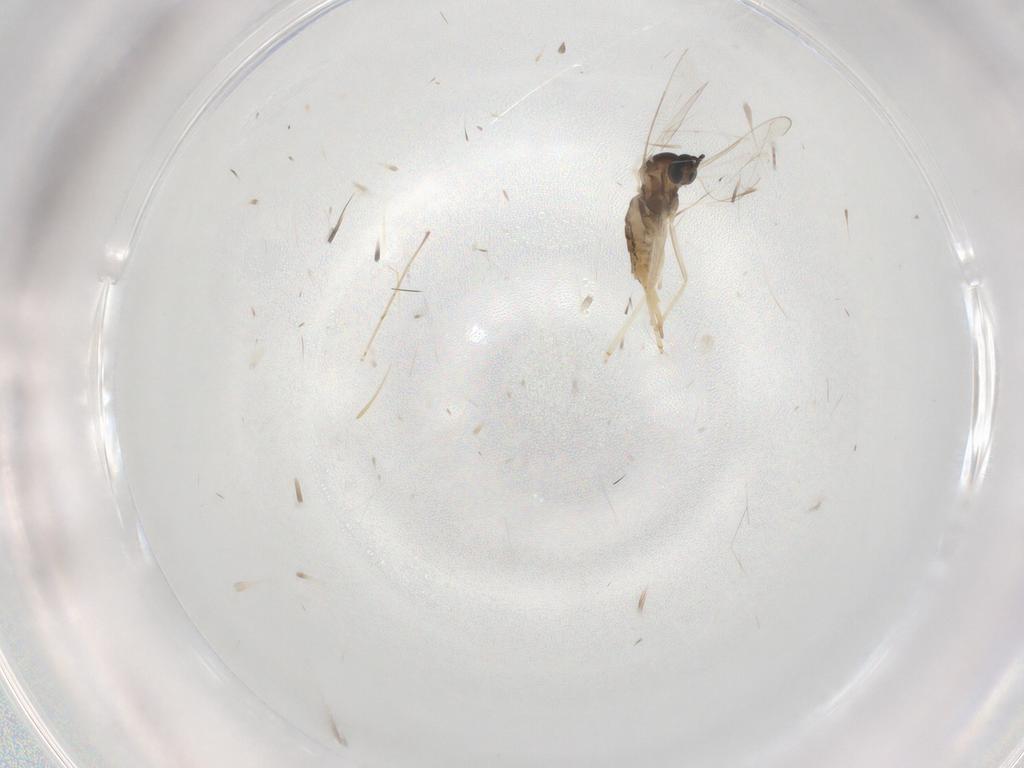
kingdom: Animalia
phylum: Arthropoda
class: Insecta
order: Diptera
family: Cecidomyiidae
